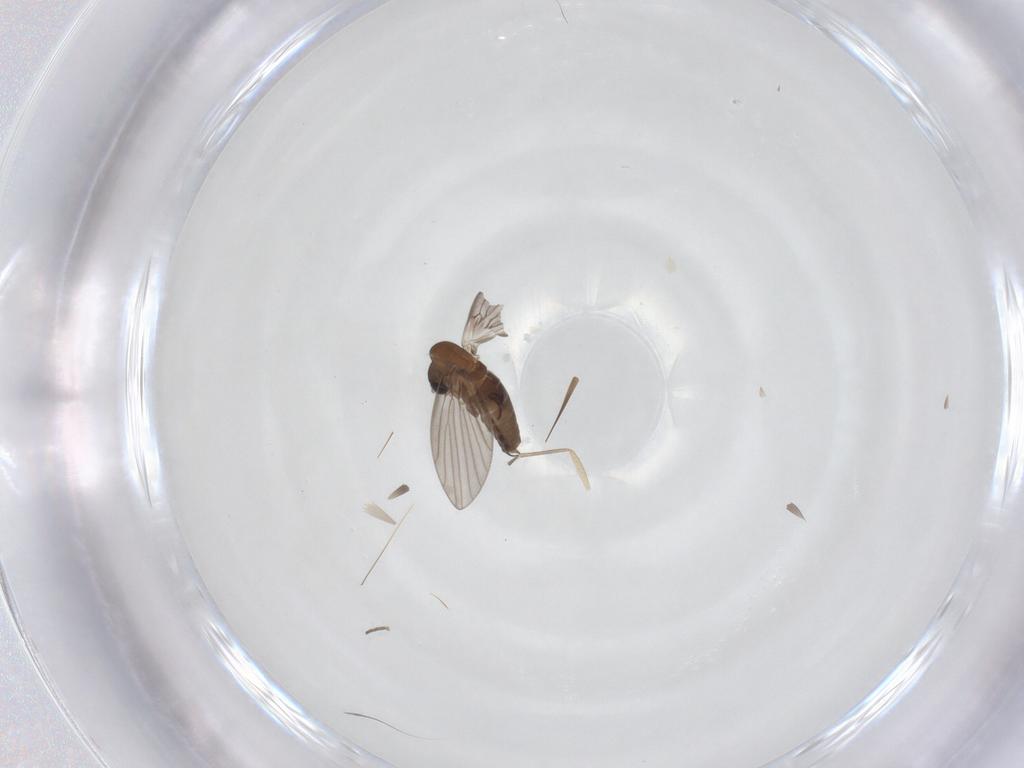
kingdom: Animalia
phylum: Arthropoda
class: Insecta
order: Diptera
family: Psychodidae
